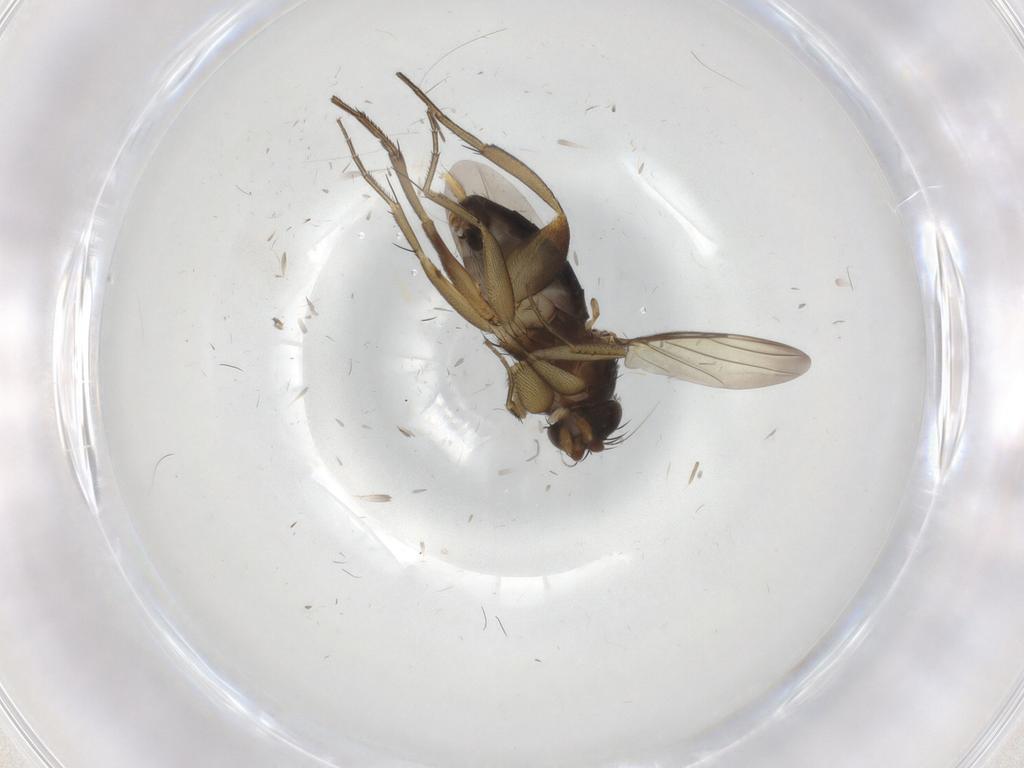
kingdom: Animalia
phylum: Arthropoda
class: Insecta
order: Diptera
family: Phoridae
